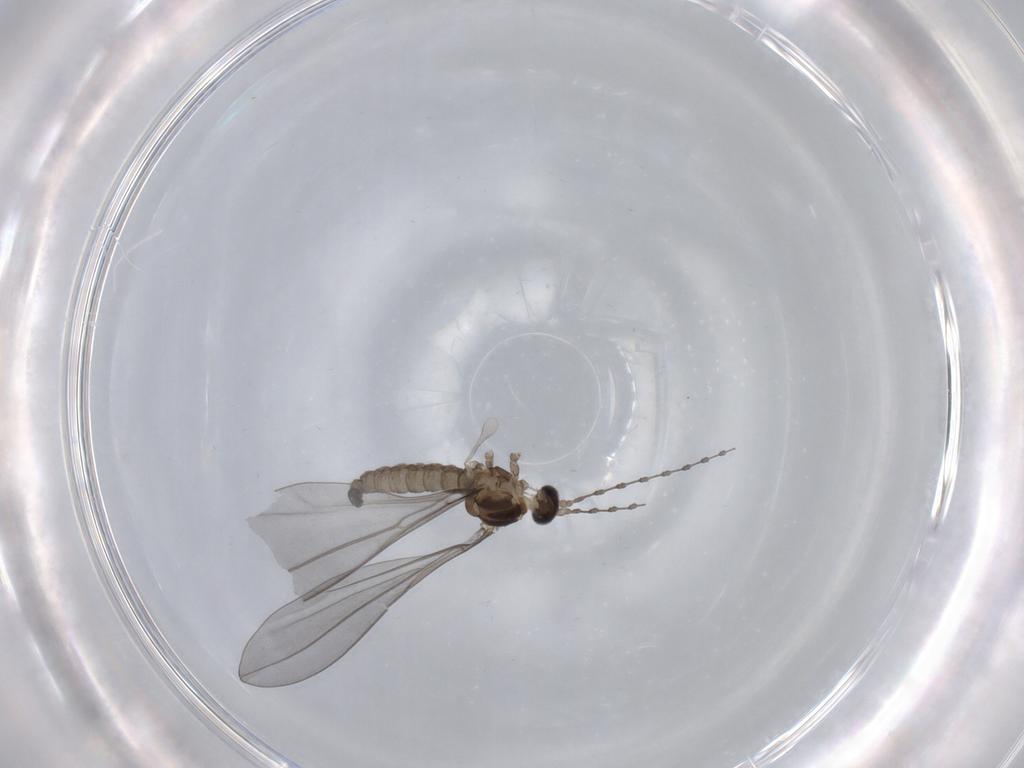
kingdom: Animalia
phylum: Arthropoda
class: Insecta
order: Diptera
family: Cecidomyiidae
